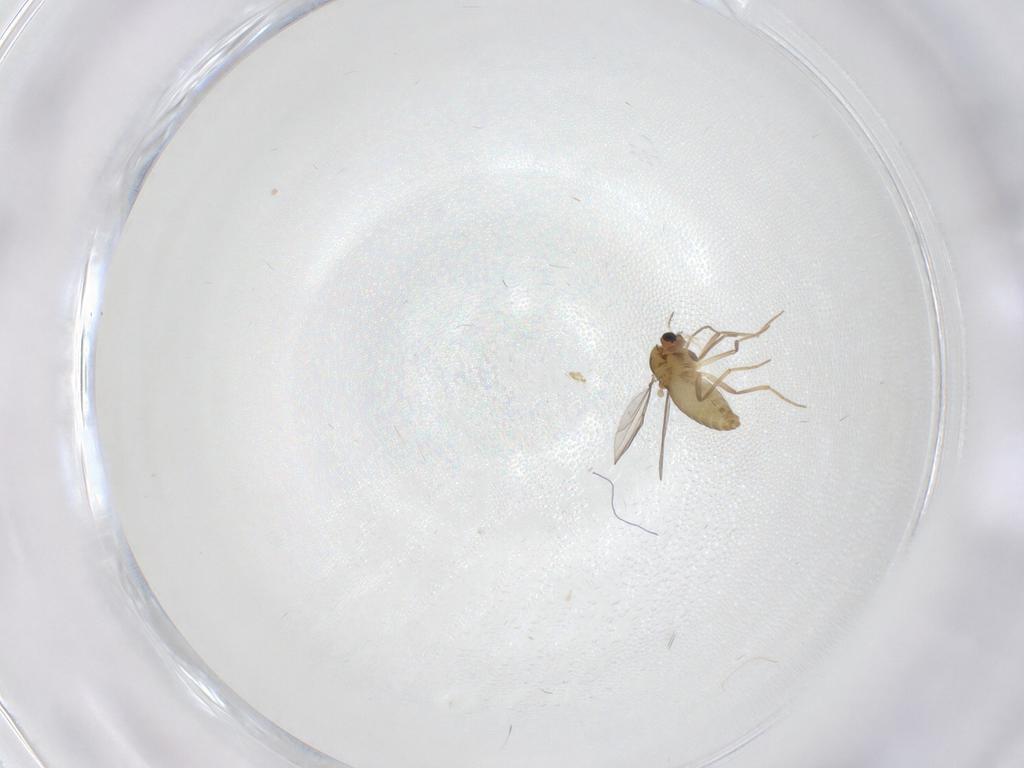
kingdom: Animalia
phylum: Arthropoda
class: Insecta
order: Diptera
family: Chironomidae
